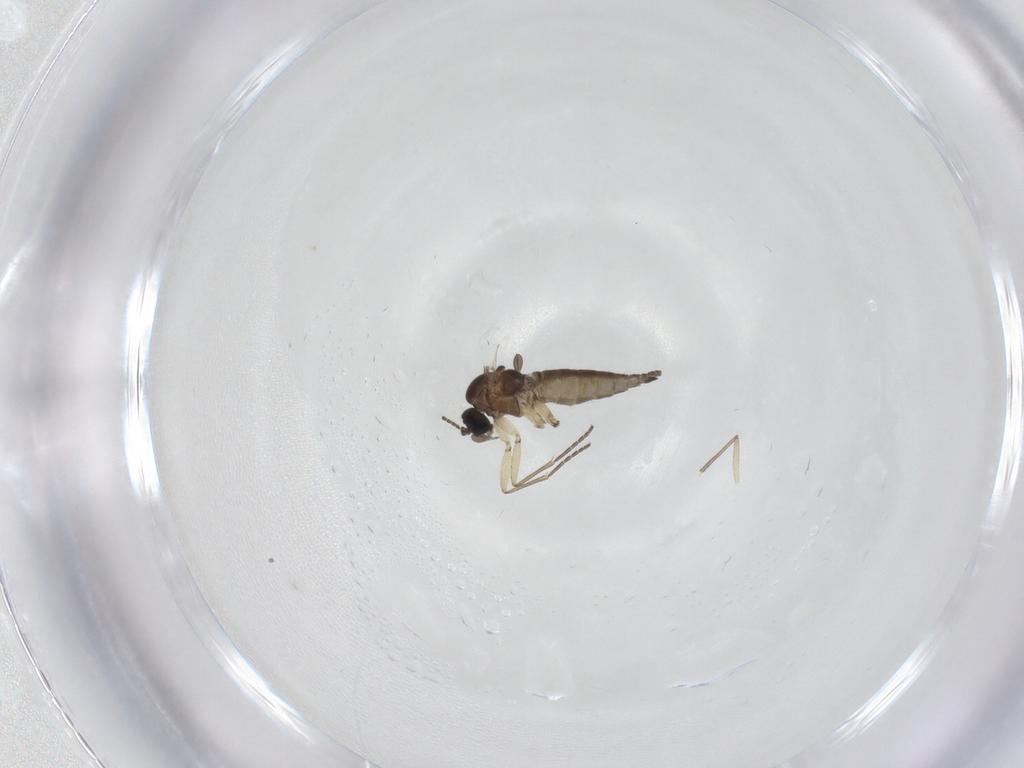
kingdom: Animalia
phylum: Arthropoda
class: Insecta
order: Diptera
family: Sciaridae
